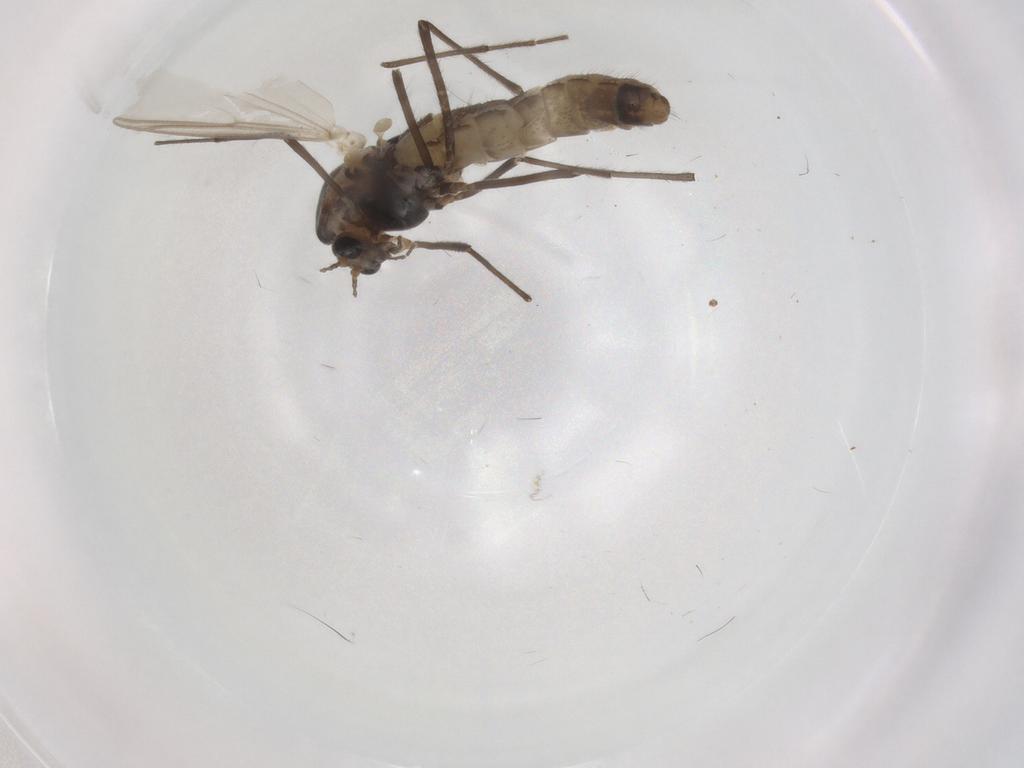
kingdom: Animalia
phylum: Arthropoda
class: Insecta
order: Diptera
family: Chironomidae
